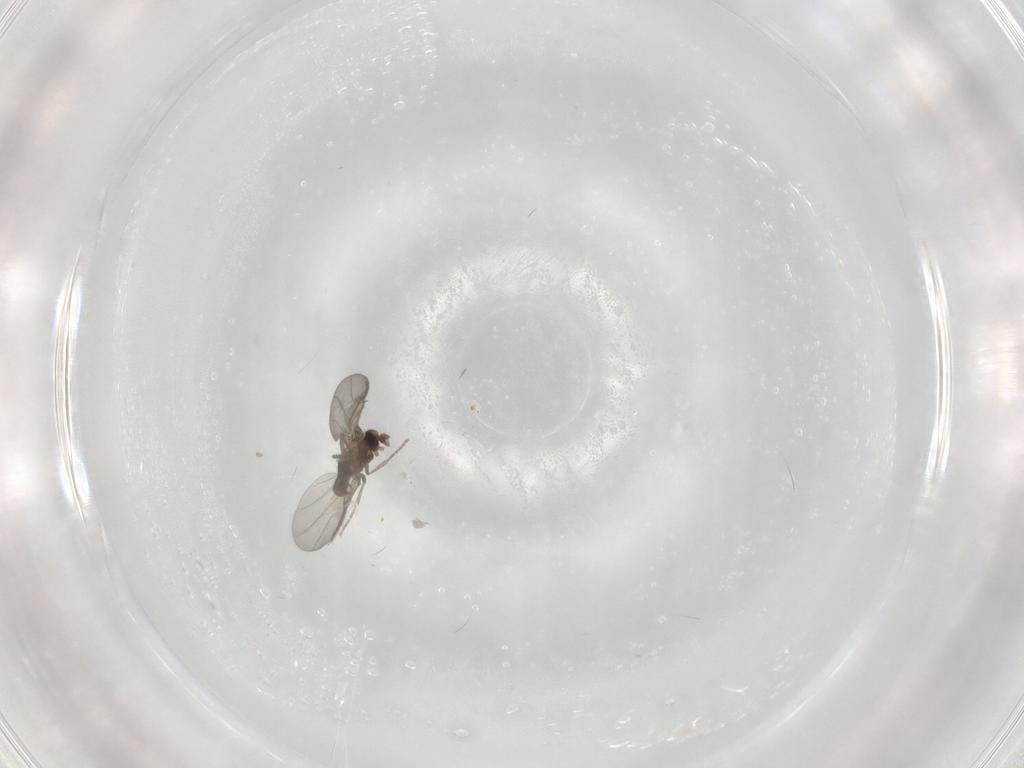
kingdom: Animalia
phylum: Arthropoda
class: Insecta
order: Diptera
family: Phoridae
